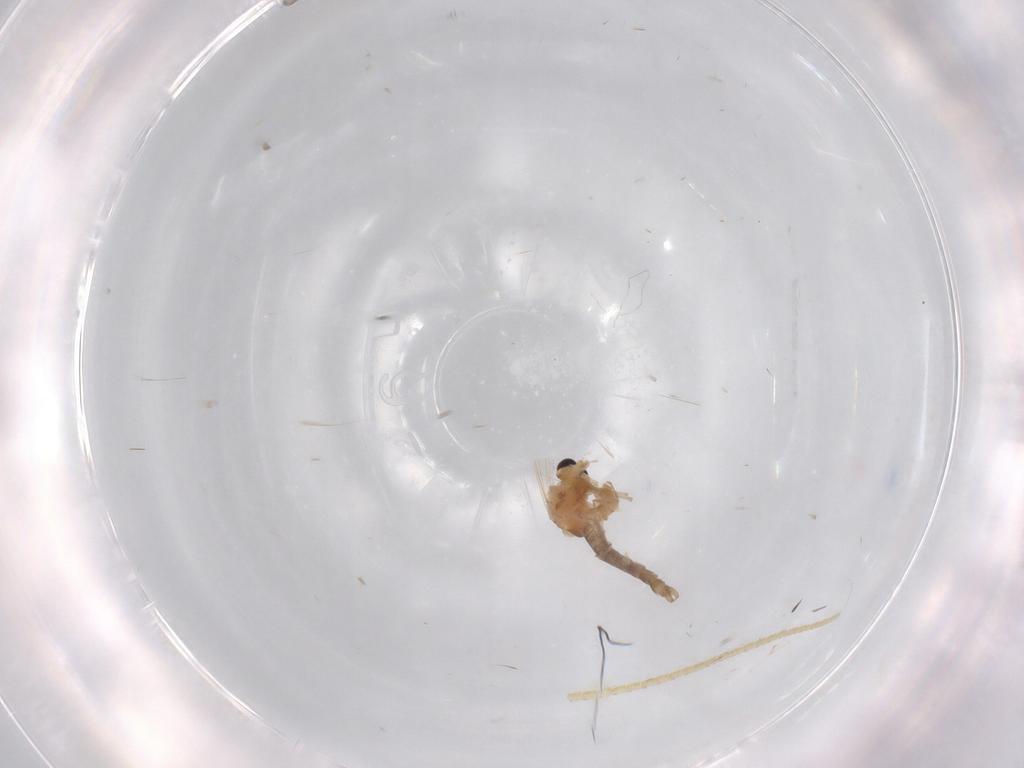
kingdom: Animalia
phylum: Arthropoda
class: Insecta
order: Diptera
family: Chironomidae
